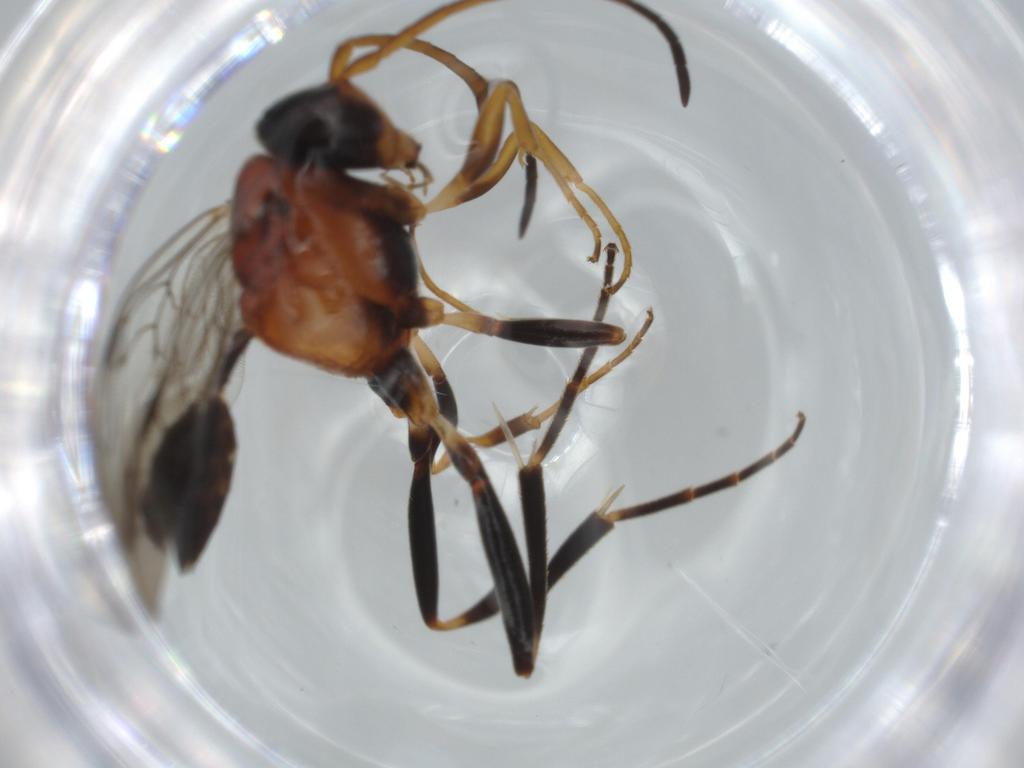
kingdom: Animalia
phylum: Arthropoda
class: Insecta
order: Hymenoptera
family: Evaniidae
